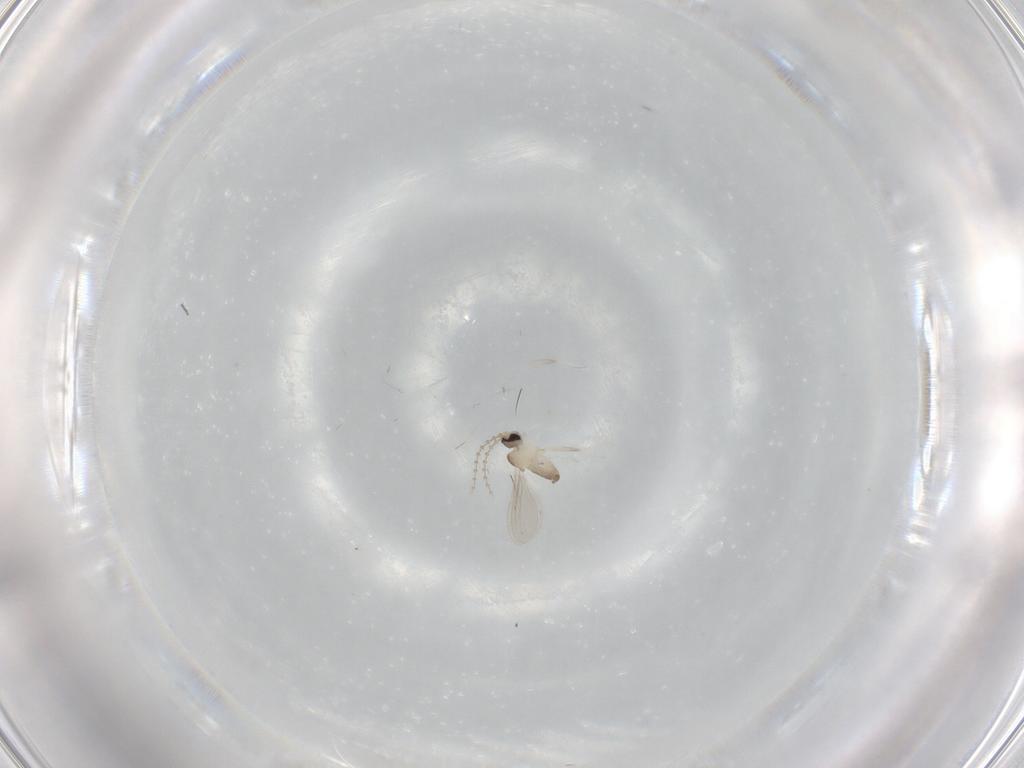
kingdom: Animalia
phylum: Arthropoda
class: Insecta
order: Diptera
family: Cecidomyiidae
